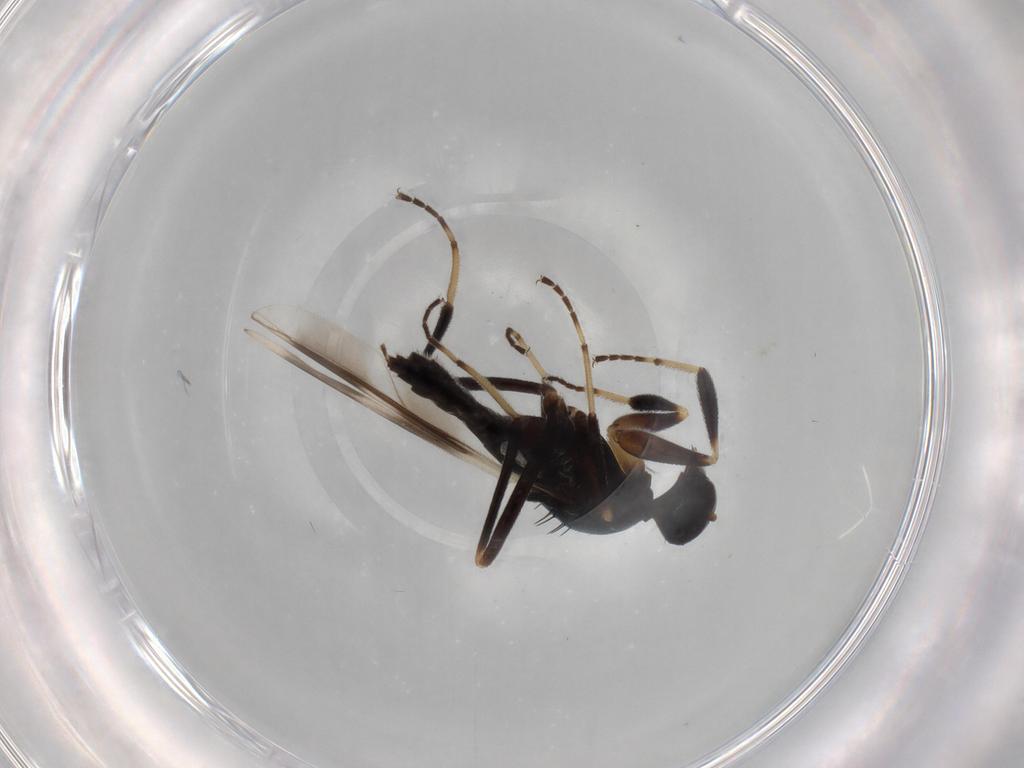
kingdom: Animalia
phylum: Arthropoda
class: Insecta
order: Diptera
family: Hybotidae
